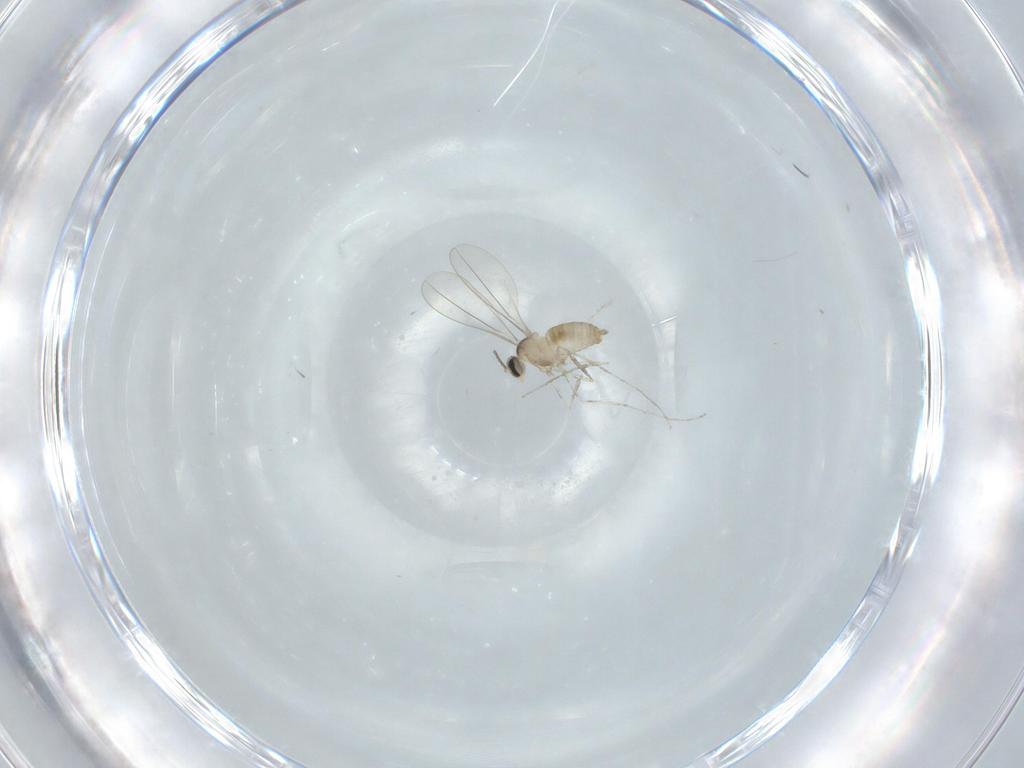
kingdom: Animalia
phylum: Arthropoda
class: Insecta
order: Diptera
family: Cecidomyiidae
